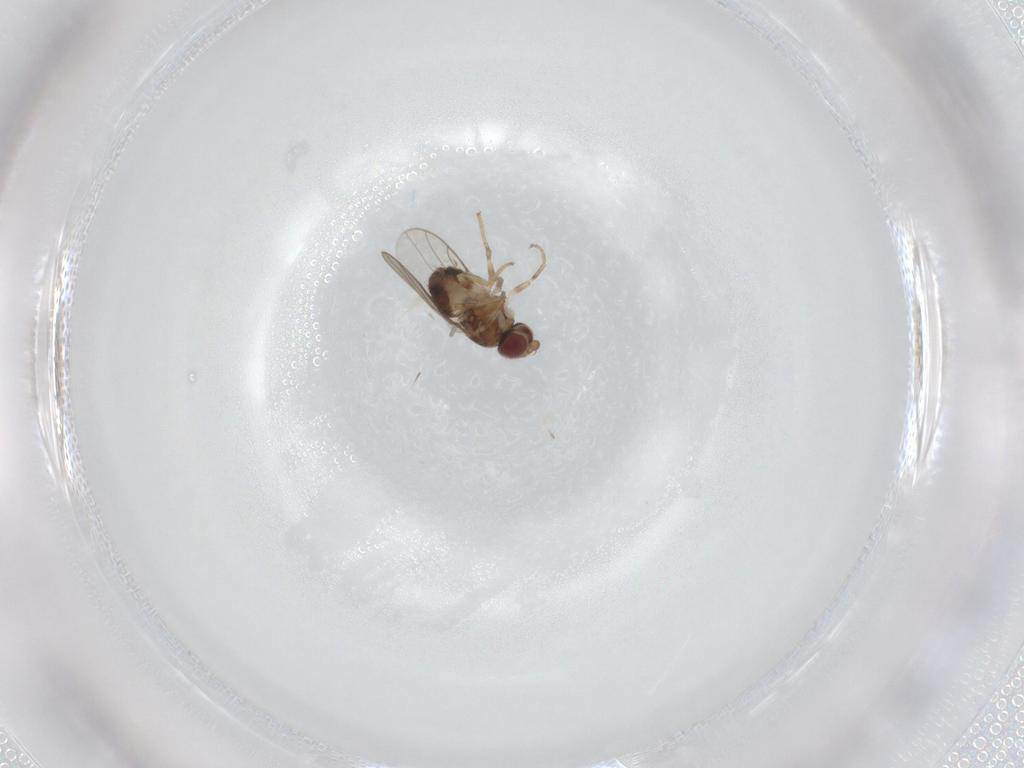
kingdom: Animalia
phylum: Arthropoda
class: Insecta
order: Diptera
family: Chloropidae
